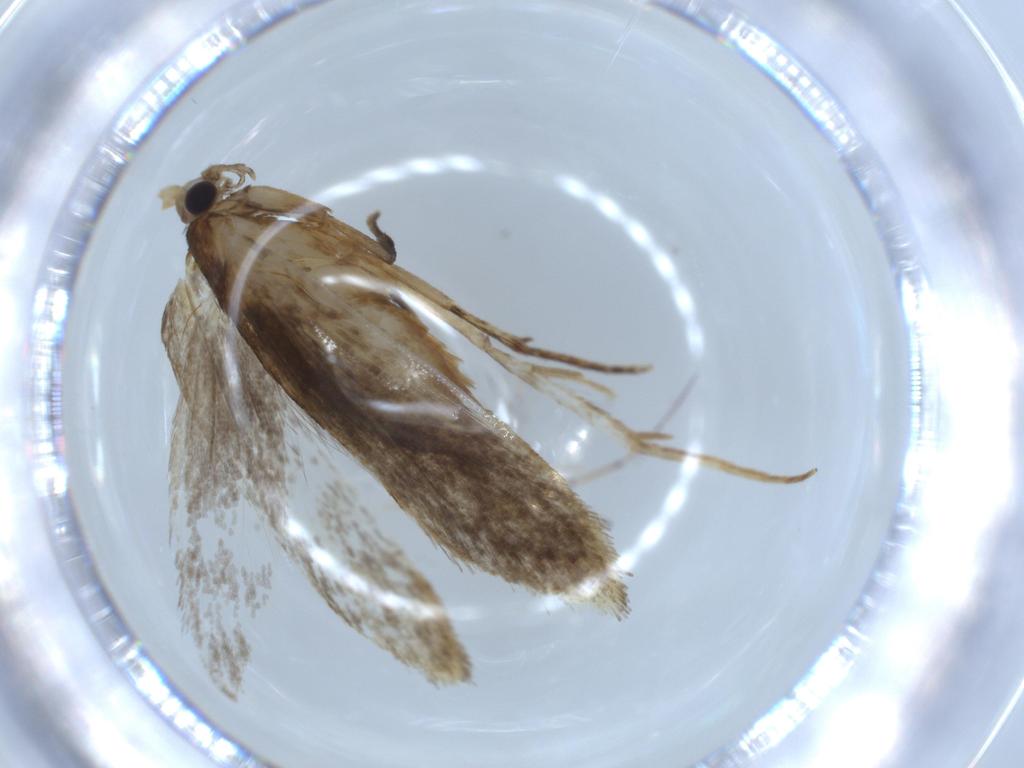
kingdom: Animalia
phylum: Arthropoda
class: Insecta
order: Lepidoptera
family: Tineidae
